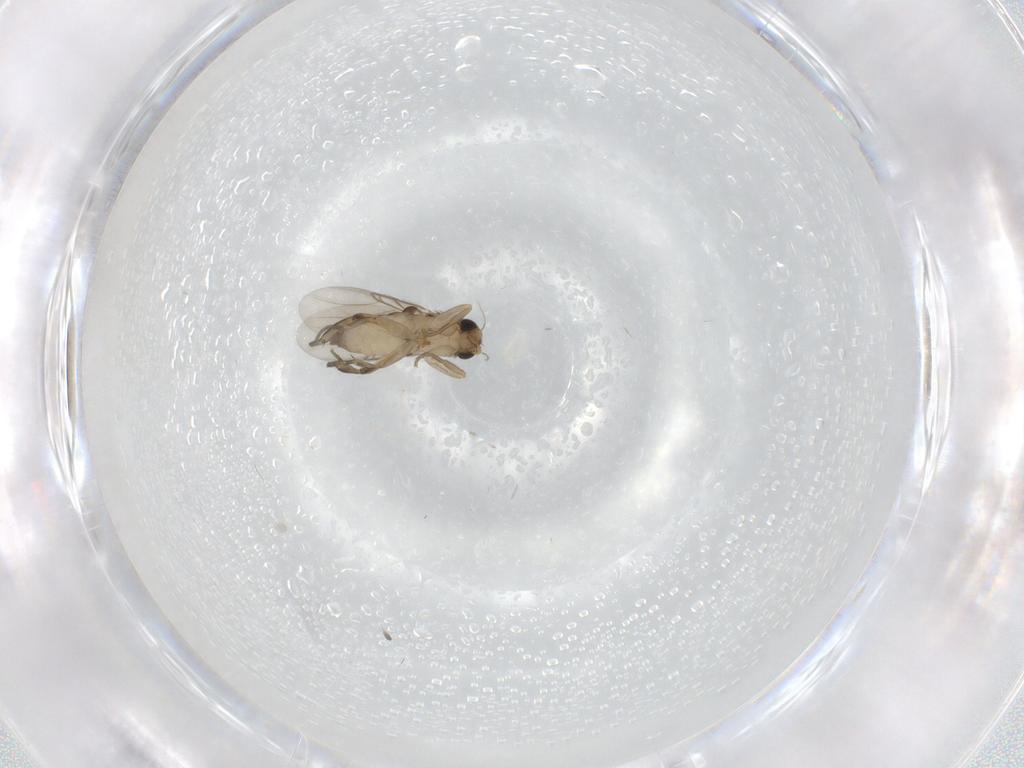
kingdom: Animalia
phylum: Arthropoda
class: Insecta
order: Diptera
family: Phoridae
